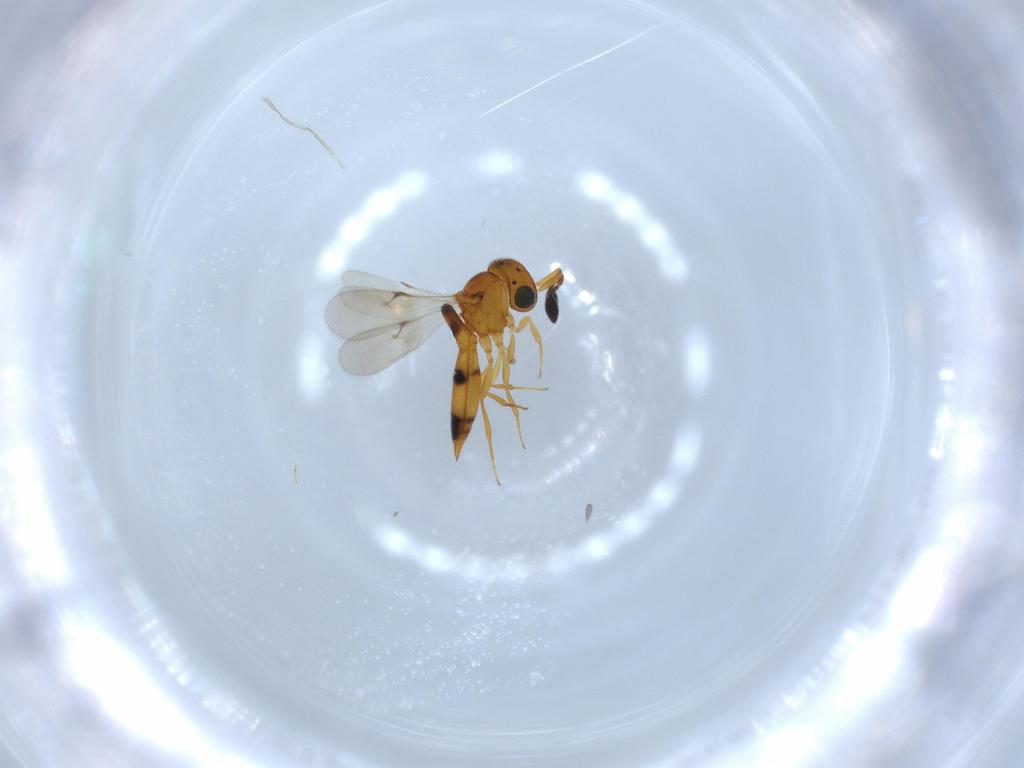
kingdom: Animalia
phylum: Arthropoda
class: Insecta
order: Hymenoptera
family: Scelionidae
